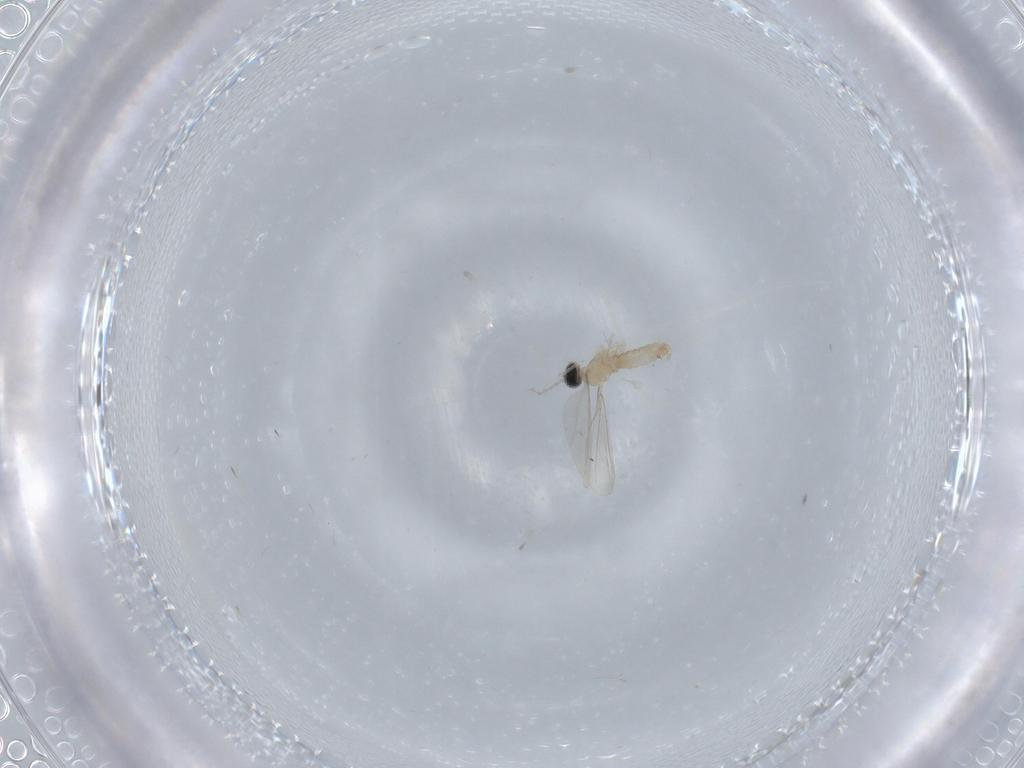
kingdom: Animalia
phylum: Arthropoda
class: Insecta
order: Diptera
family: Cecidomyiidae
